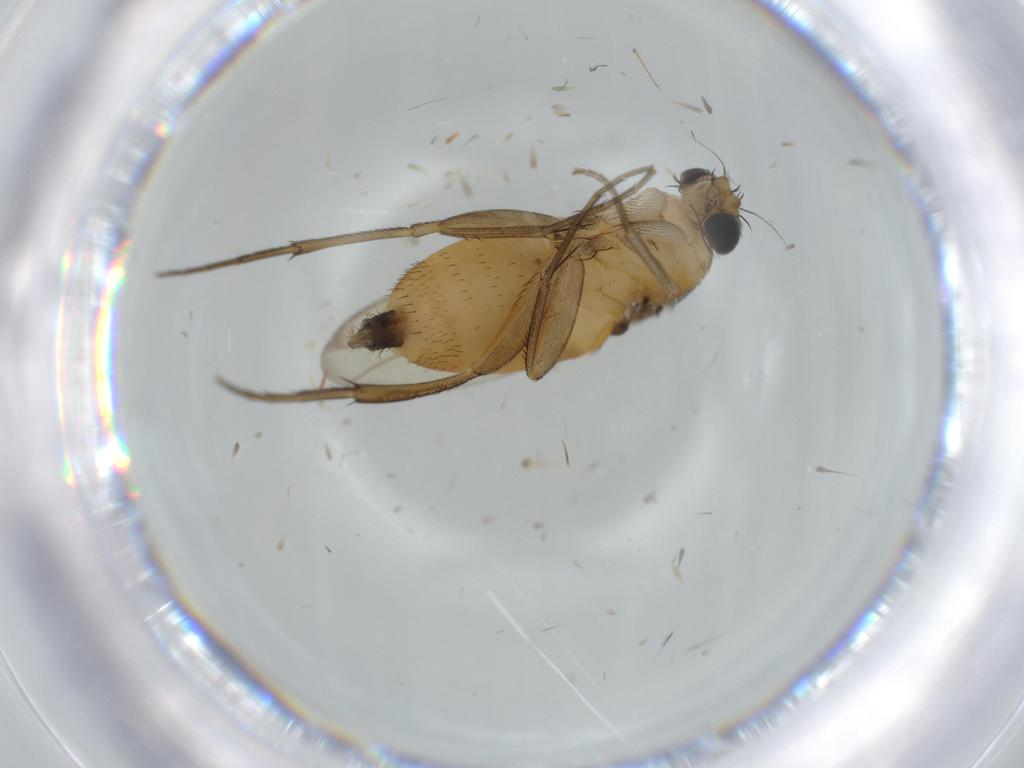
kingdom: Animalia
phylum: Arthropoda
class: Insecta
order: Diptera
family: Phoridae
